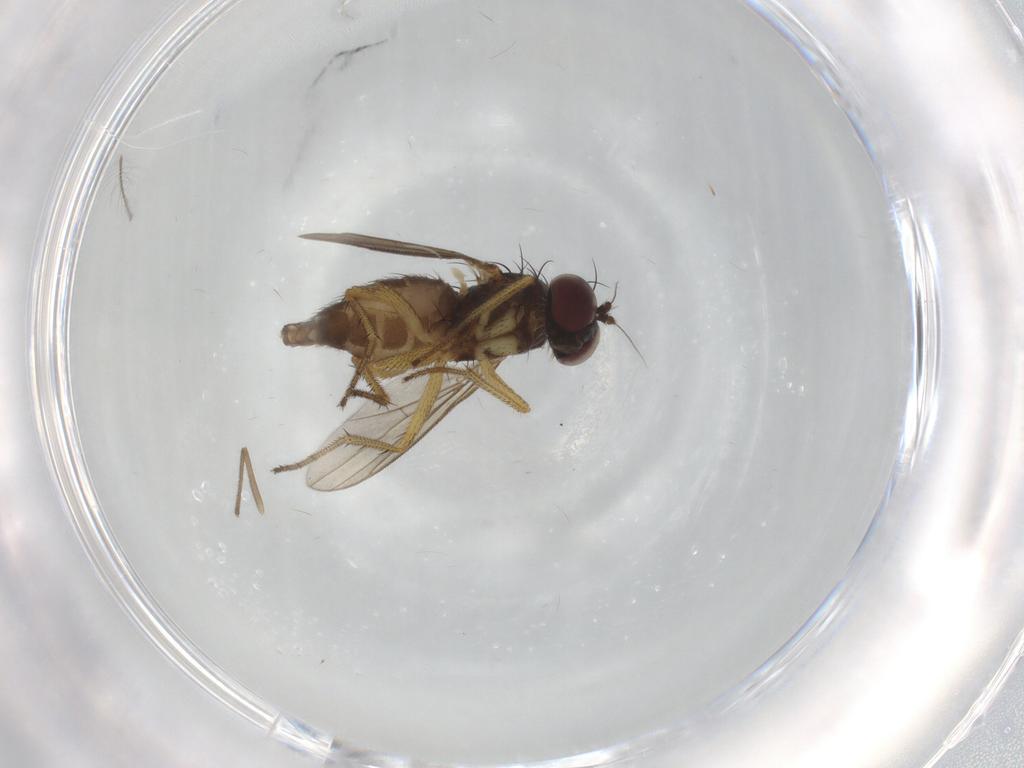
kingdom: Animalia
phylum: Arthropoda
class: Insecta
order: Diptera
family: Dolichopodidae
